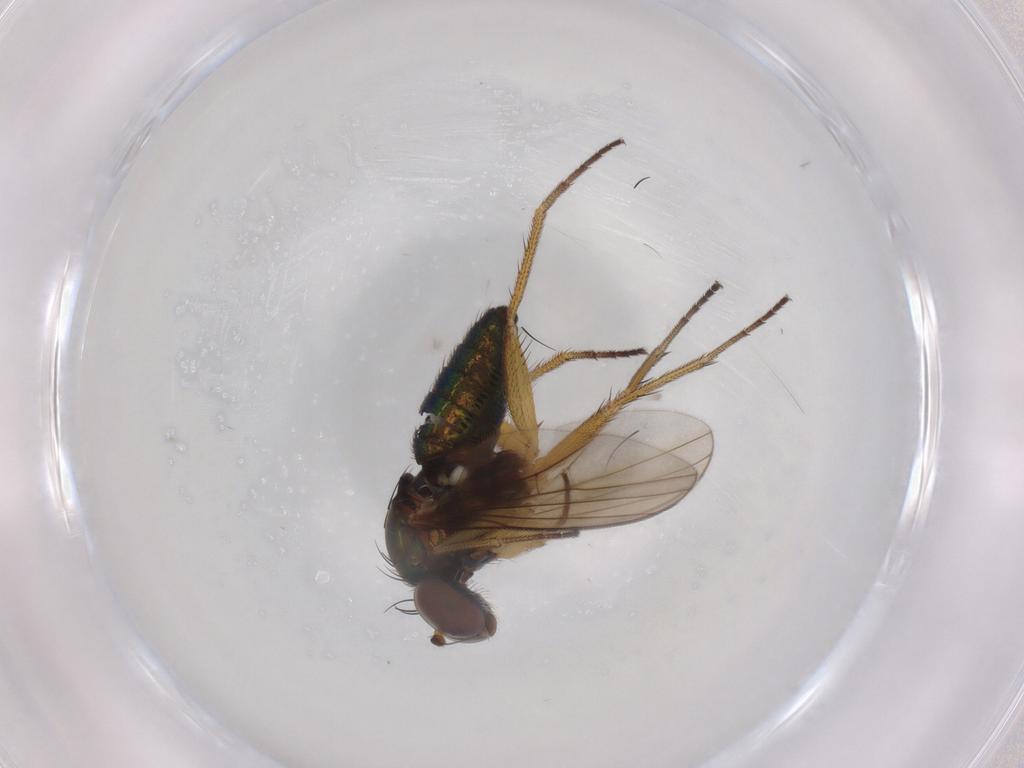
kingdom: Animalia
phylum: Arthropoda
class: Insecta
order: Diptera
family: Dolichopodidae
